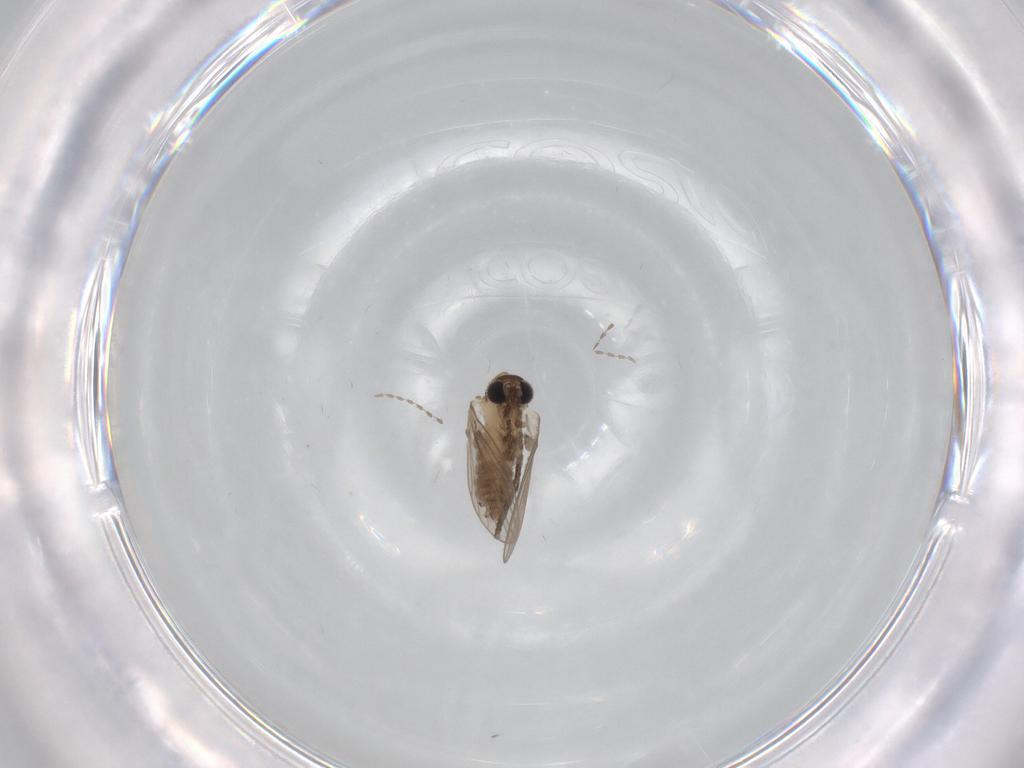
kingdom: Animalia
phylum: Arthropoda
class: Insecta
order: Diptera
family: Psychodidae
